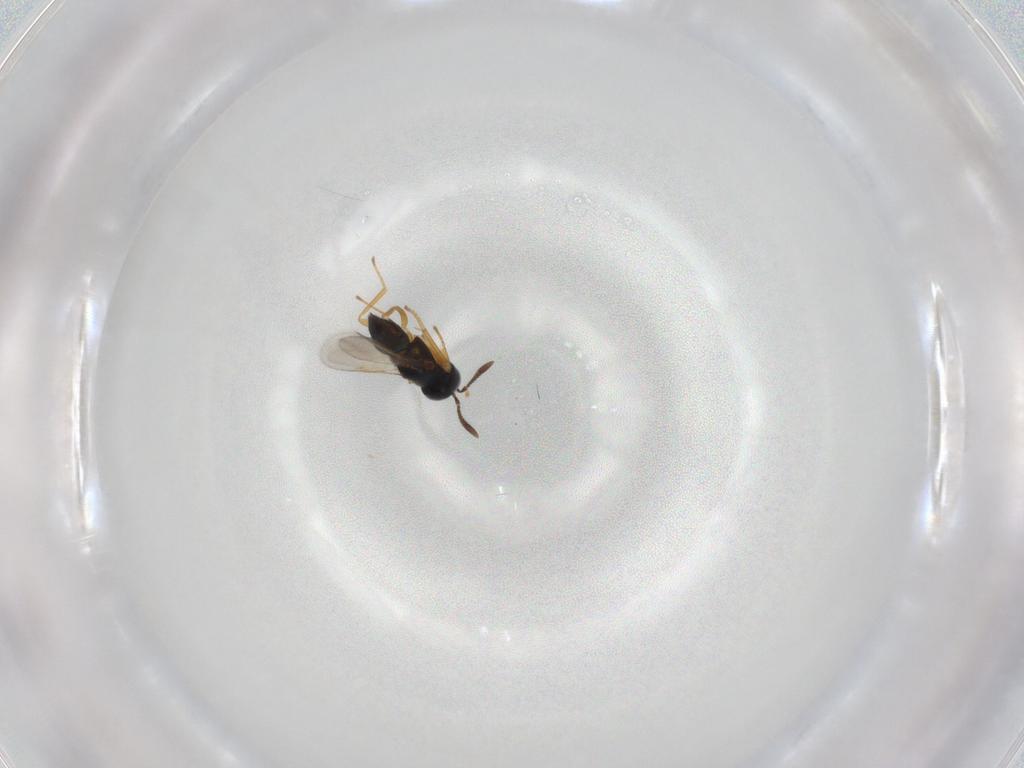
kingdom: Animalia
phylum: Arthropoda
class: Insecta
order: Hymenoptera
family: Encyrtidae
